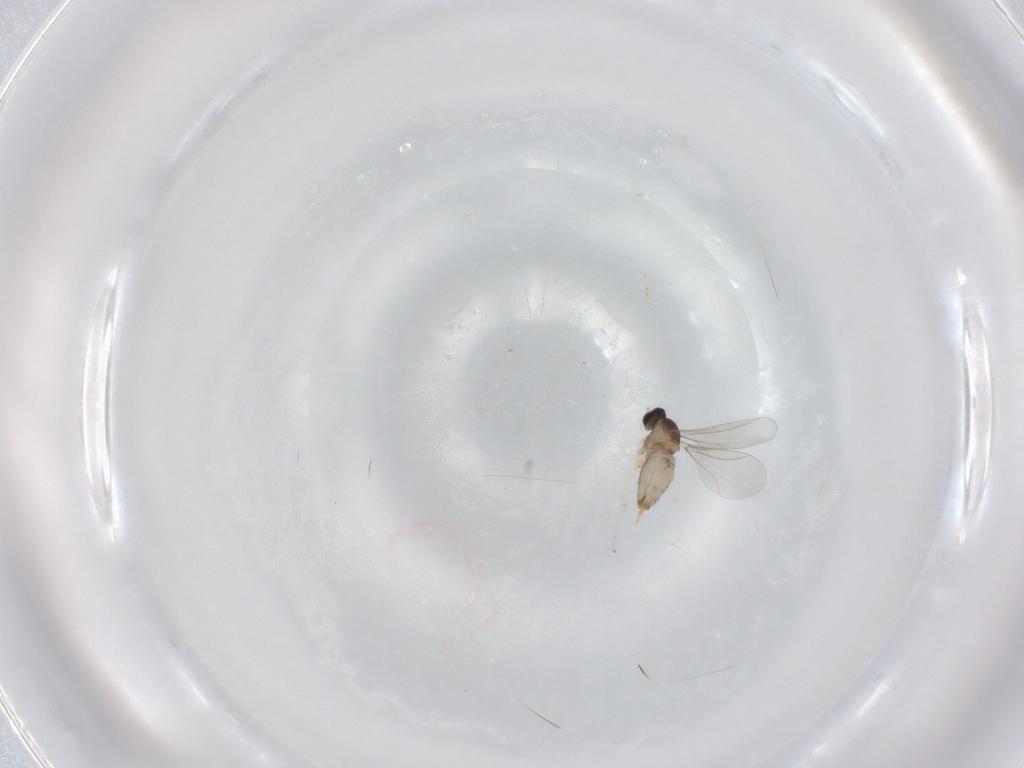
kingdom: Animalia
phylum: Arthropoda
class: Insecta
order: Diptera
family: Cecidomyiidae
